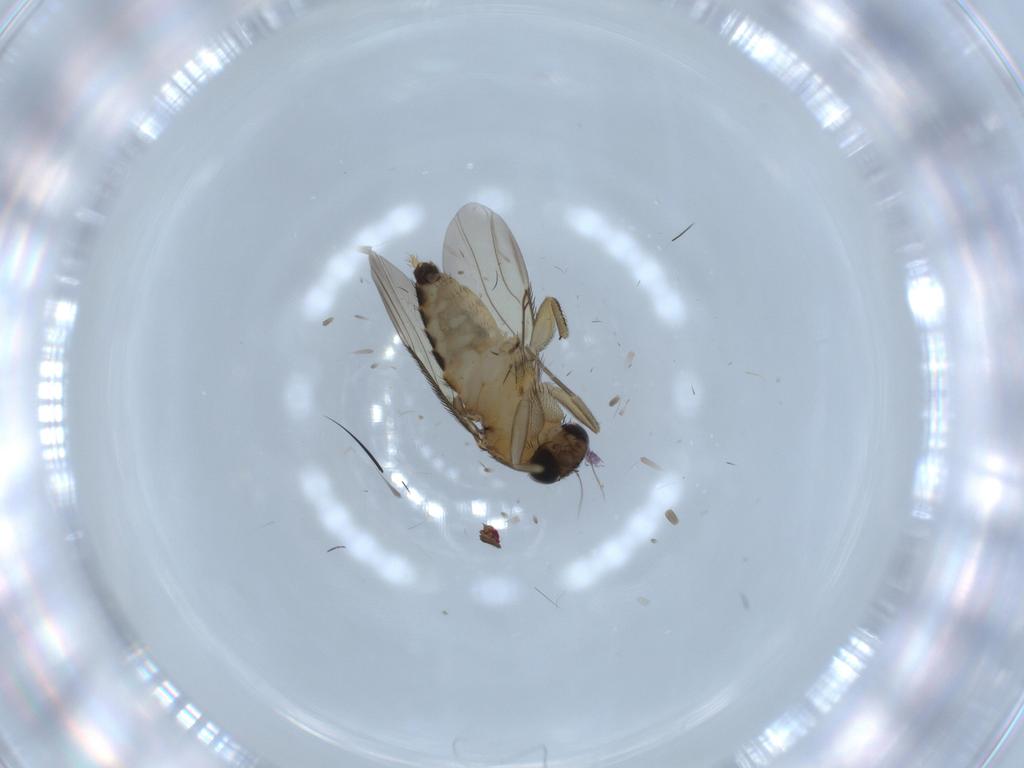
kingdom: Animalia
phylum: Arthropoda
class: Insecta
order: Diptera
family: Phoridae
